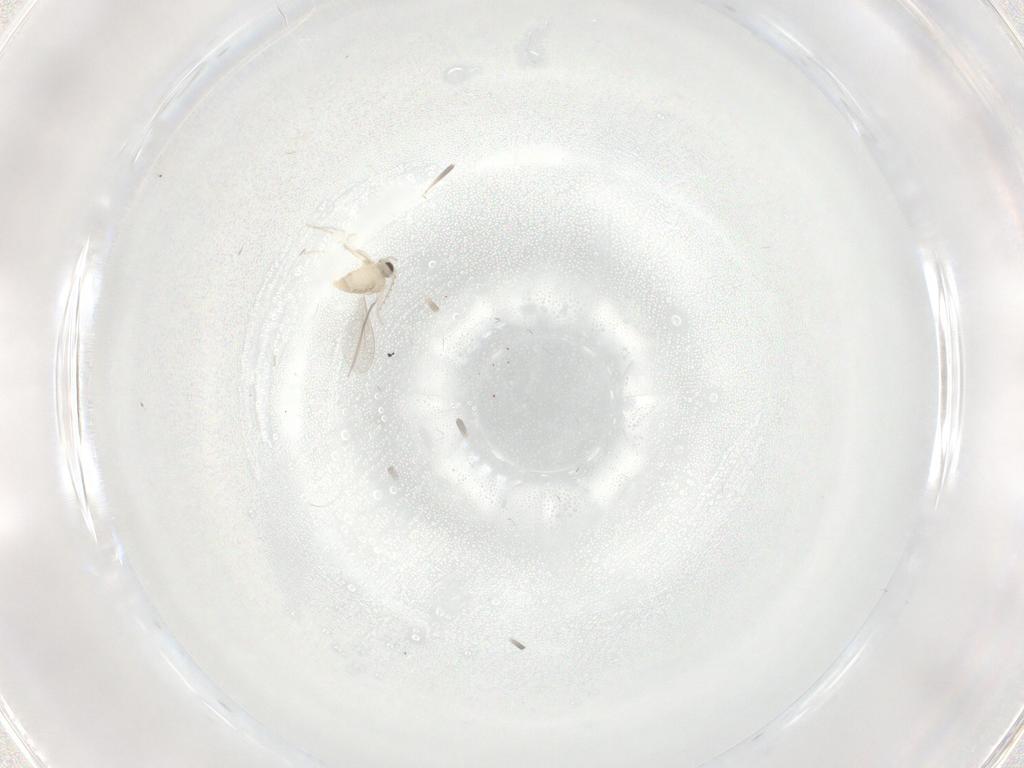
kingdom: Animalia
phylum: Arthropoda
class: Insecta
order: Diptera
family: Cecidomyiidae
